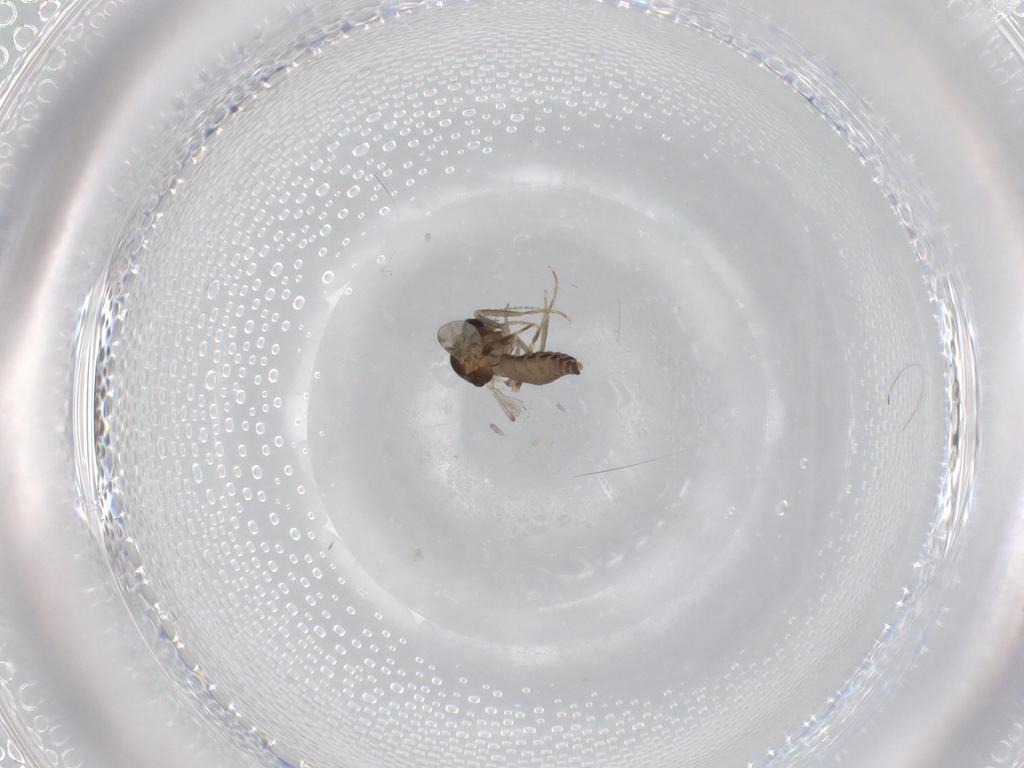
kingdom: Animalia
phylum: Arthropoda
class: Insecta
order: Diptera
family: Ceratopogonidae
